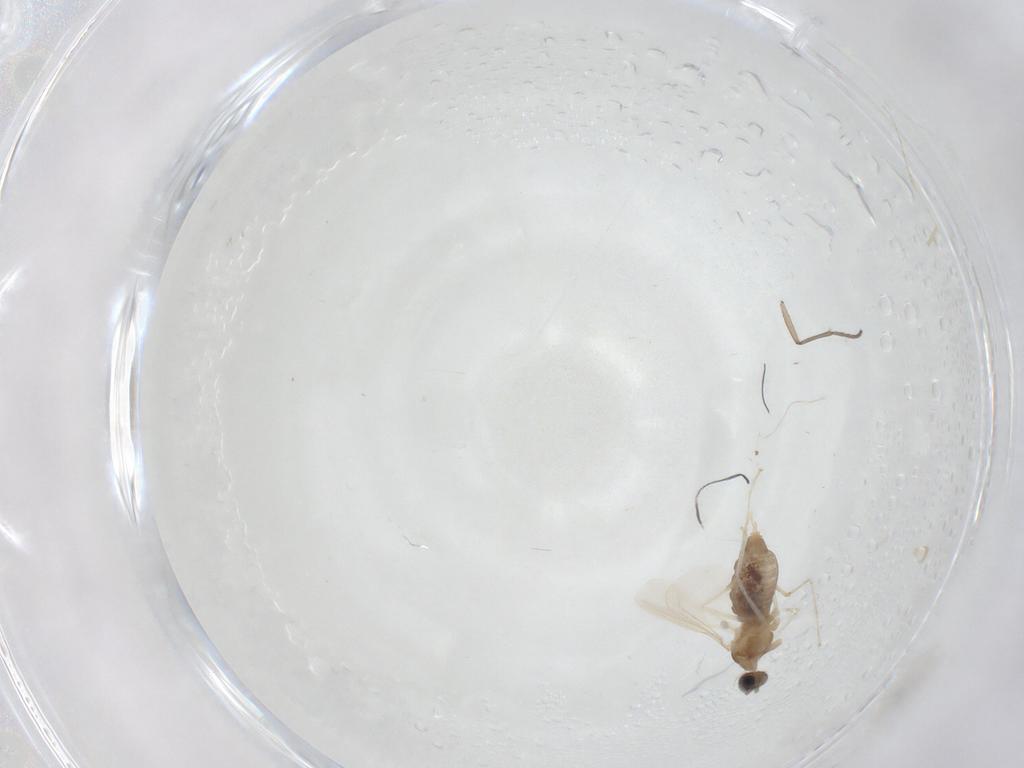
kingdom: Animalia
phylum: Arthropoda
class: Insecta
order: Diptera
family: Cecidomyiidae
